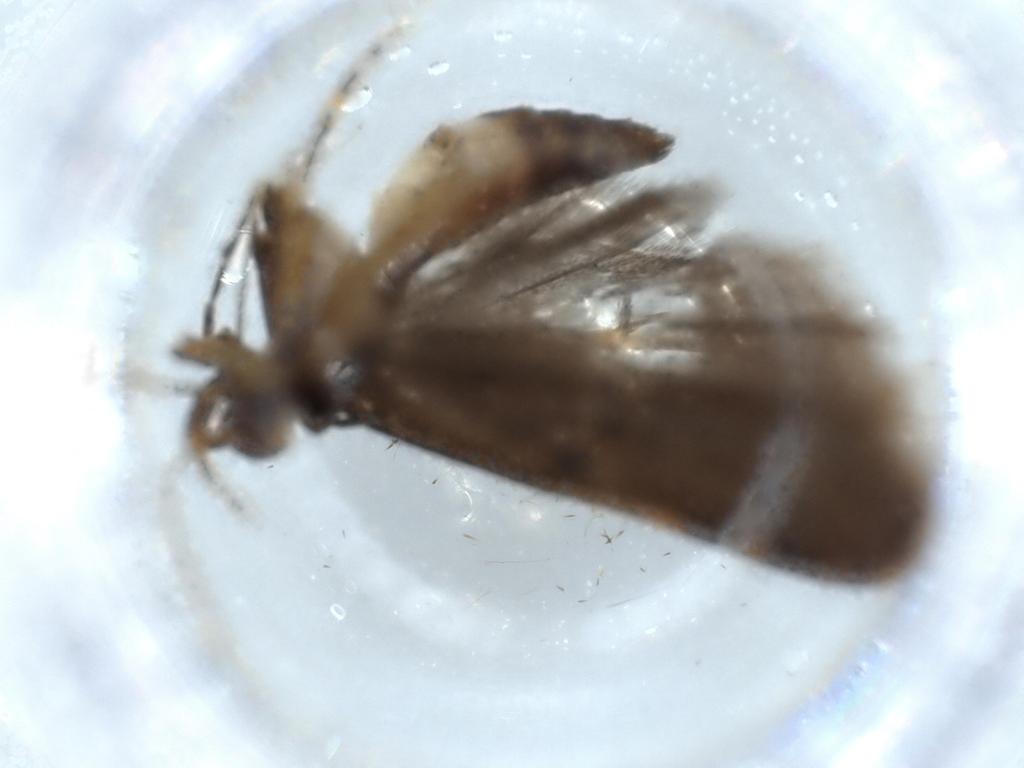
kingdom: Animalia
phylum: Arthropoda
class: Insecta
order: Lepidoptera
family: Autostichidae
